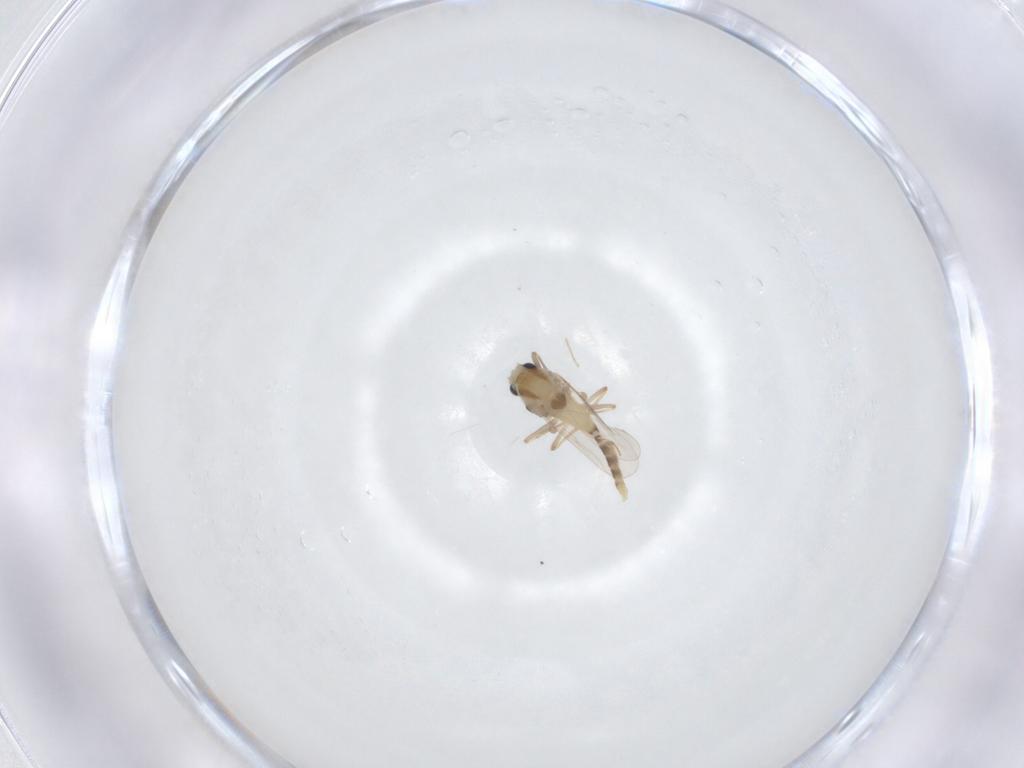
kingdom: Animalia
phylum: Arthropoda
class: Insecta
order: Diptera
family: Chironomidae
